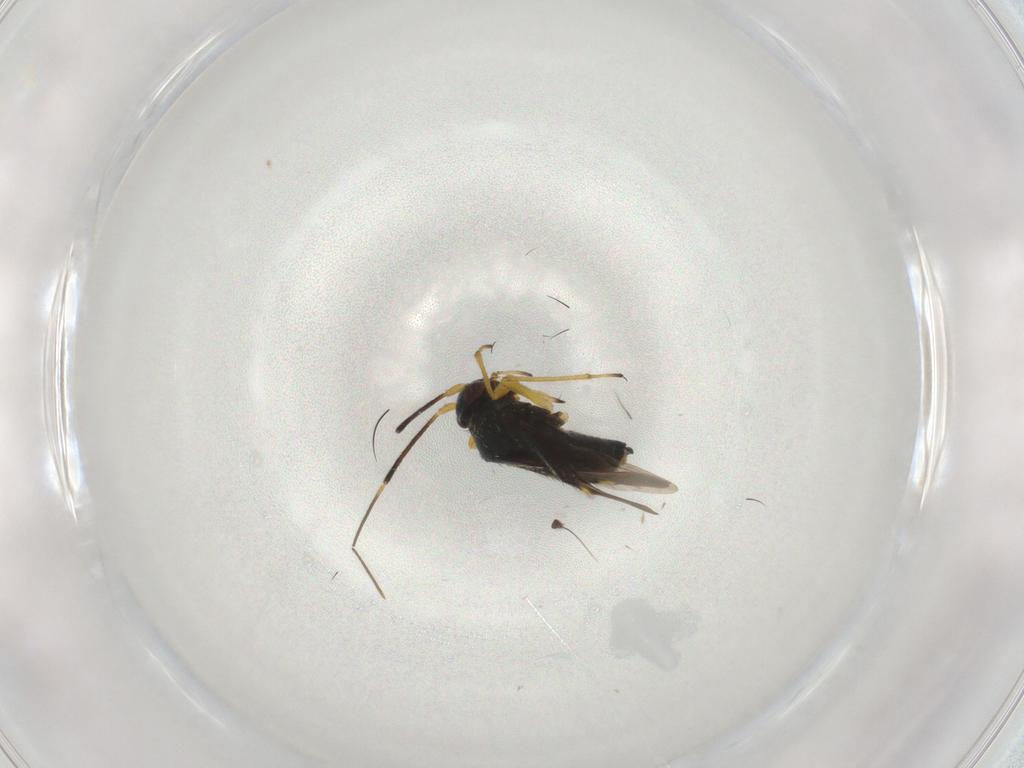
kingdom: Animalia
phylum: Arthropoda
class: Insecta
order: Hemiptera
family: Miridae
